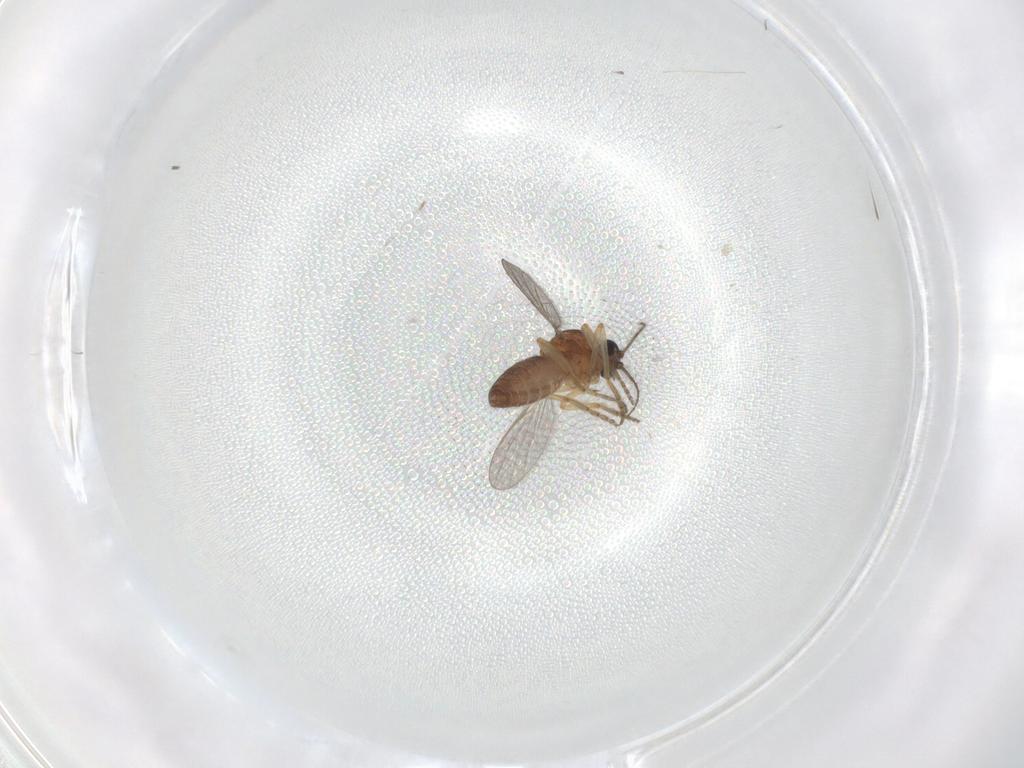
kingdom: Animalia
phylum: Arthropoda
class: Insecta
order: Diptera
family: Ceratopogonidae
